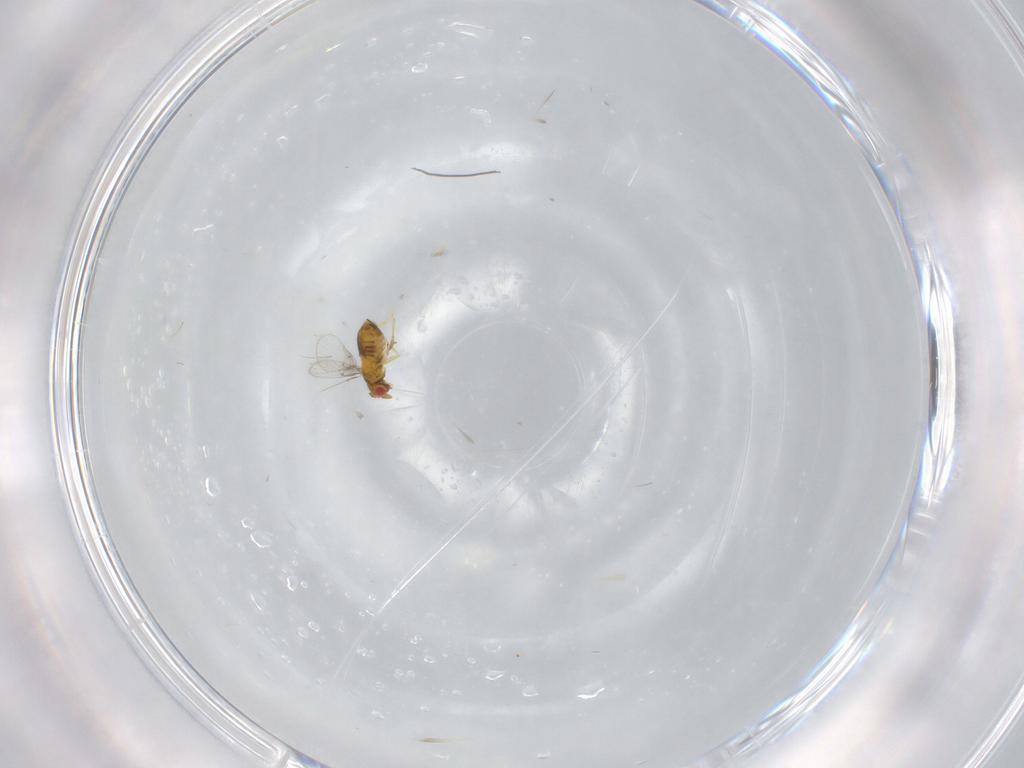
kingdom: Animalia
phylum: Arthropoda
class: Insecta
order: Hymenoptera
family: Trichogrammatidae
